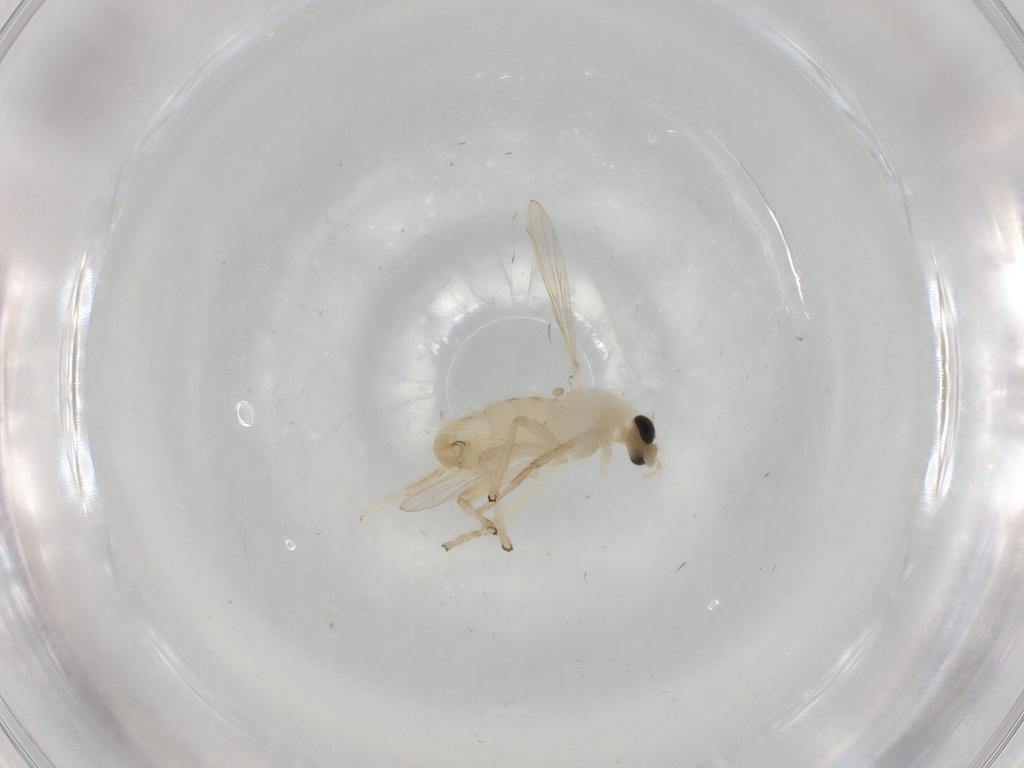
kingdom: Animalia
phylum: Arthropoda
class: Insecta
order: Diptera
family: Chironomidae
